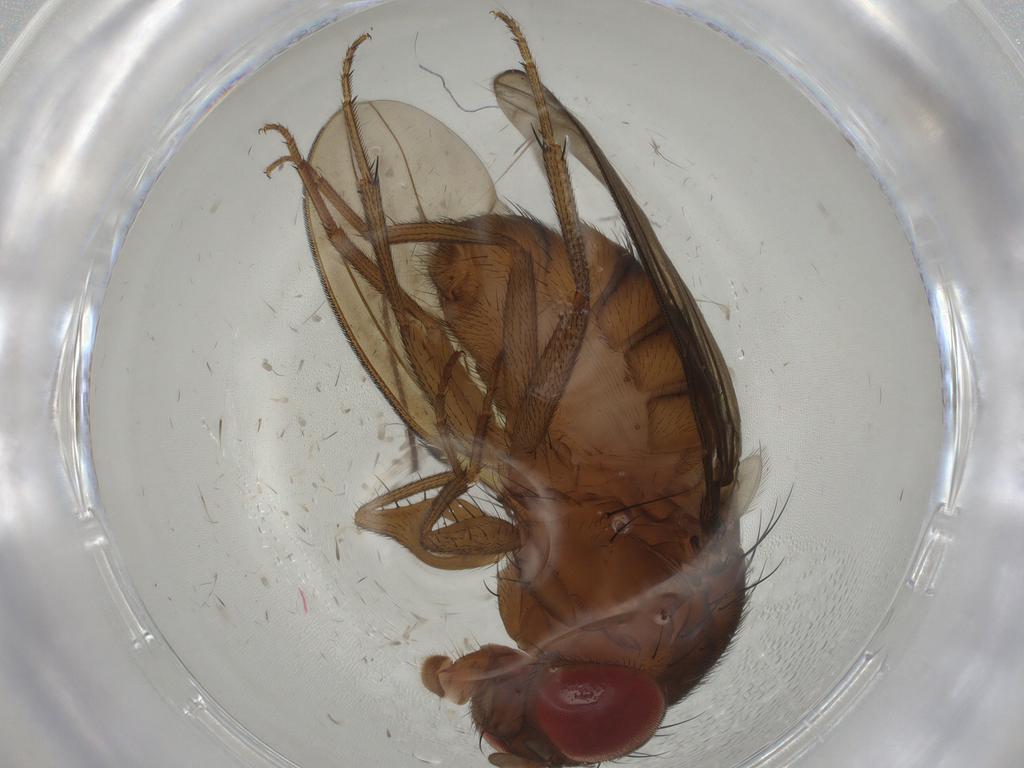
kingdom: Animalia
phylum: Arthropoda
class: Insecta
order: Diptera
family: Drosophilidae
